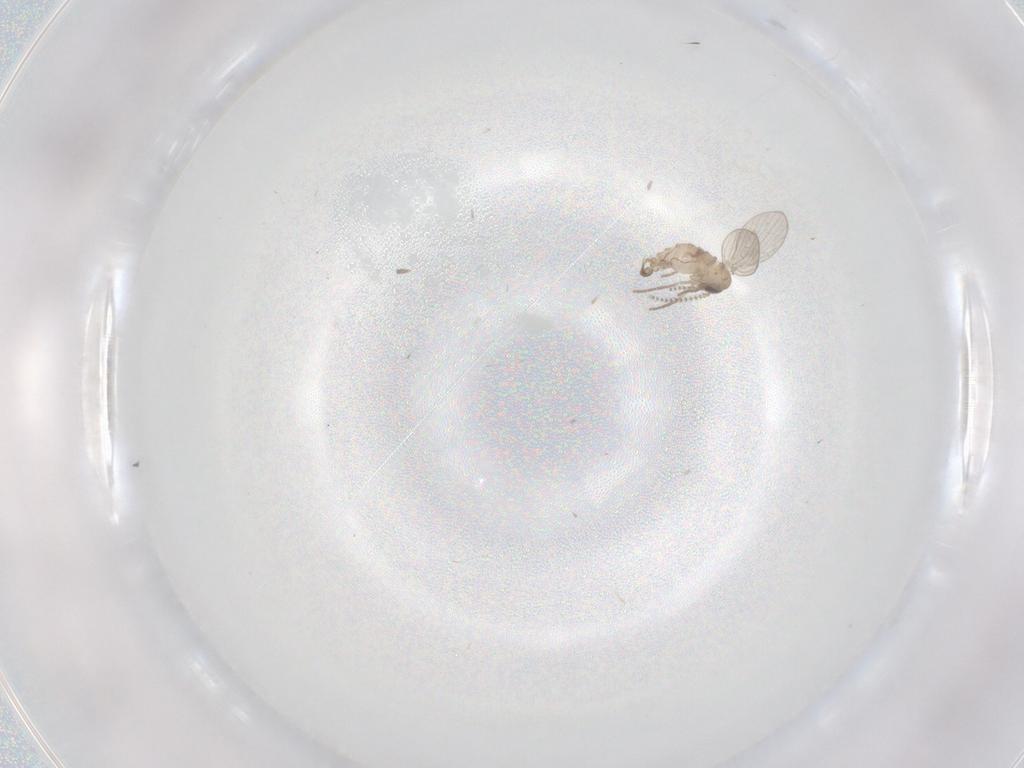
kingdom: Animalia
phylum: Arthropoda
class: Insecta
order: Diptera
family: Psychodidae
